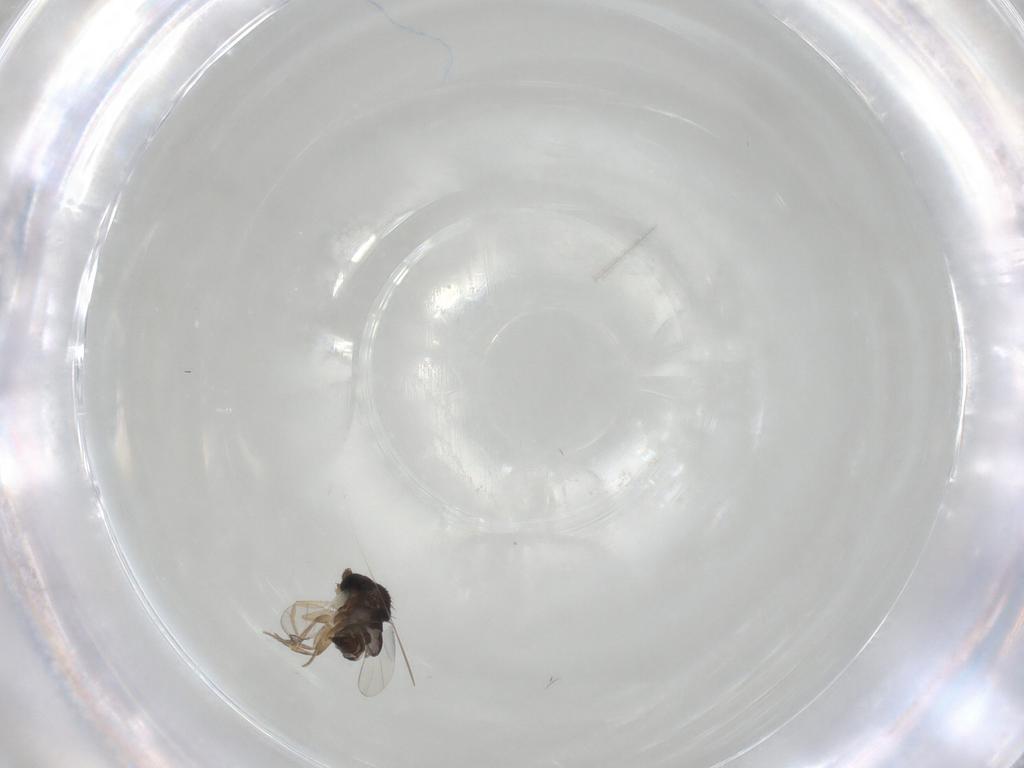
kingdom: Animalia
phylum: Arthropoda
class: Insecta
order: Diptera
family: Phoridae
